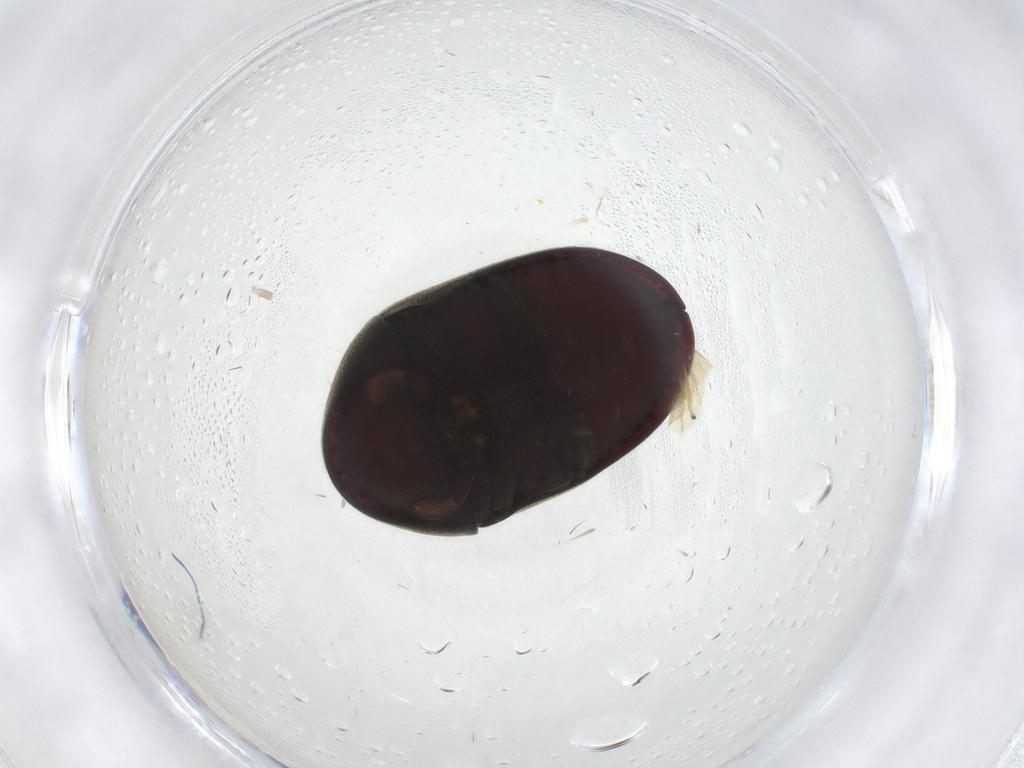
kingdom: Animalia
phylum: Arthropoda
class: Insecta
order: Coleoptera
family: Ptinidae
